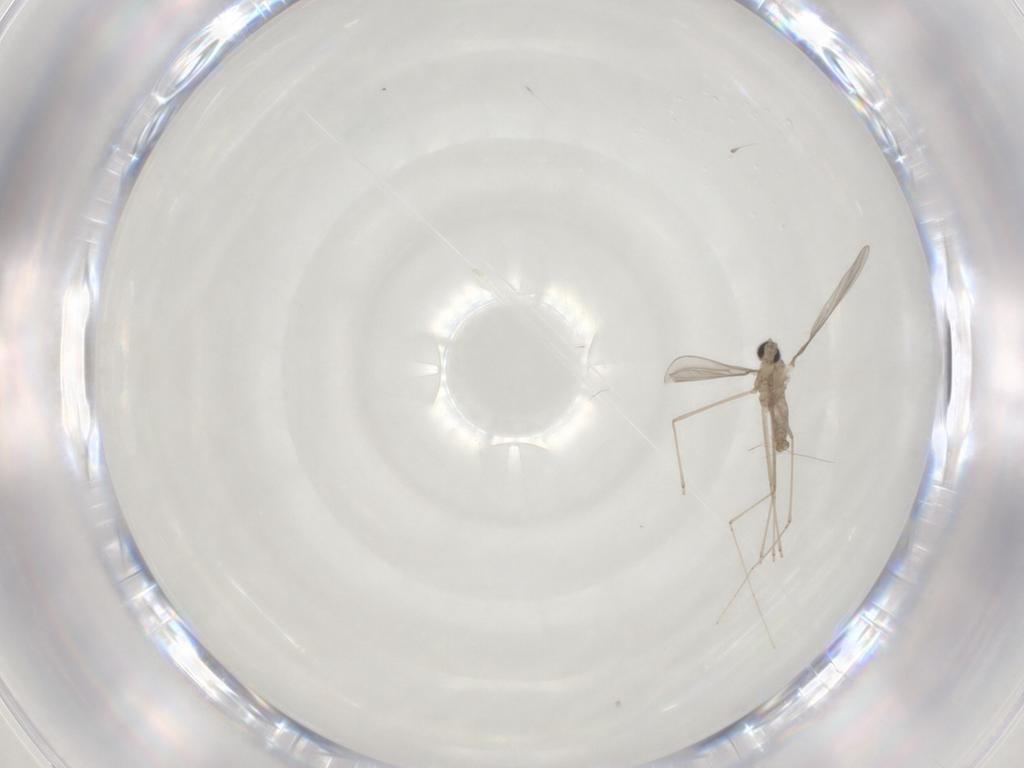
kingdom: Animalia
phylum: Arthropoda
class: Insecta
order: Diptera
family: Cecidomyiidae
